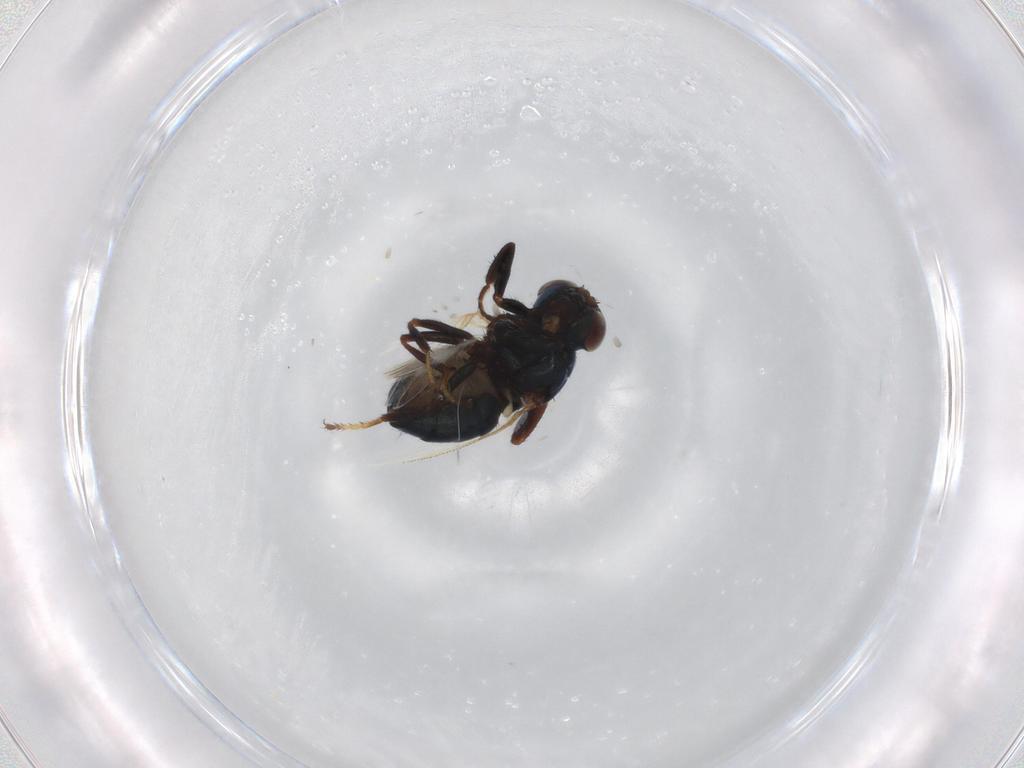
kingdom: Animalia
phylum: Arthropoda
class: Insecta
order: Diptera
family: Ephydridae
